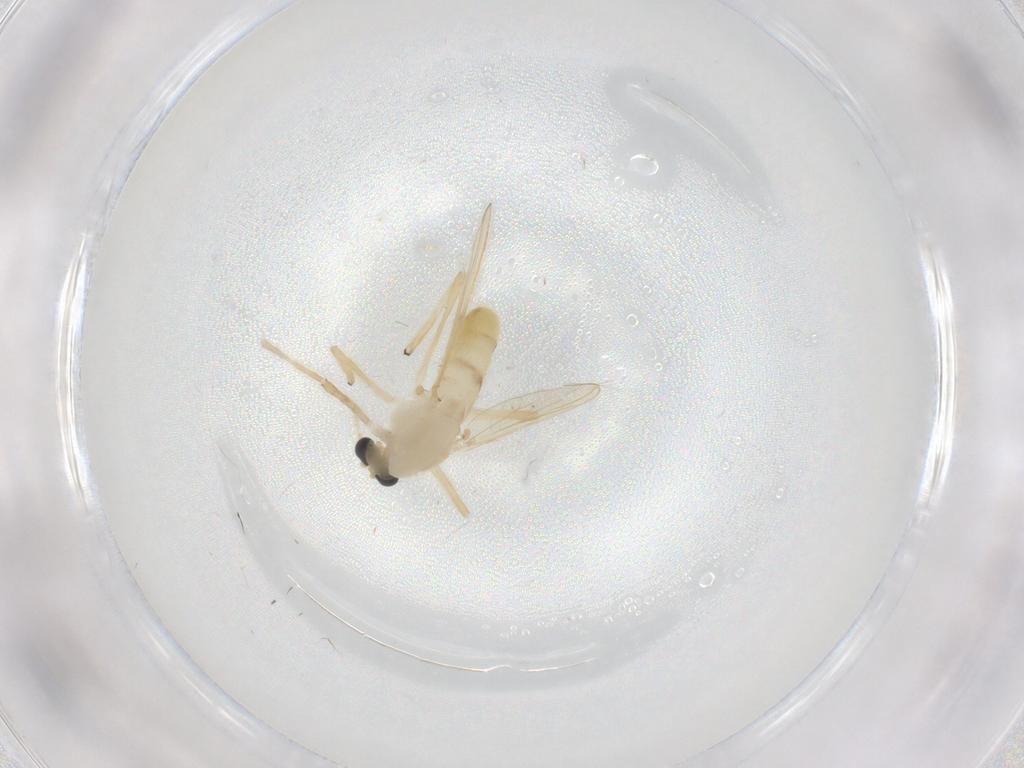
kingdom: Animalia
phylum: Arthropoda
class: Insecta
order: Diptera
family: Chironomidae
